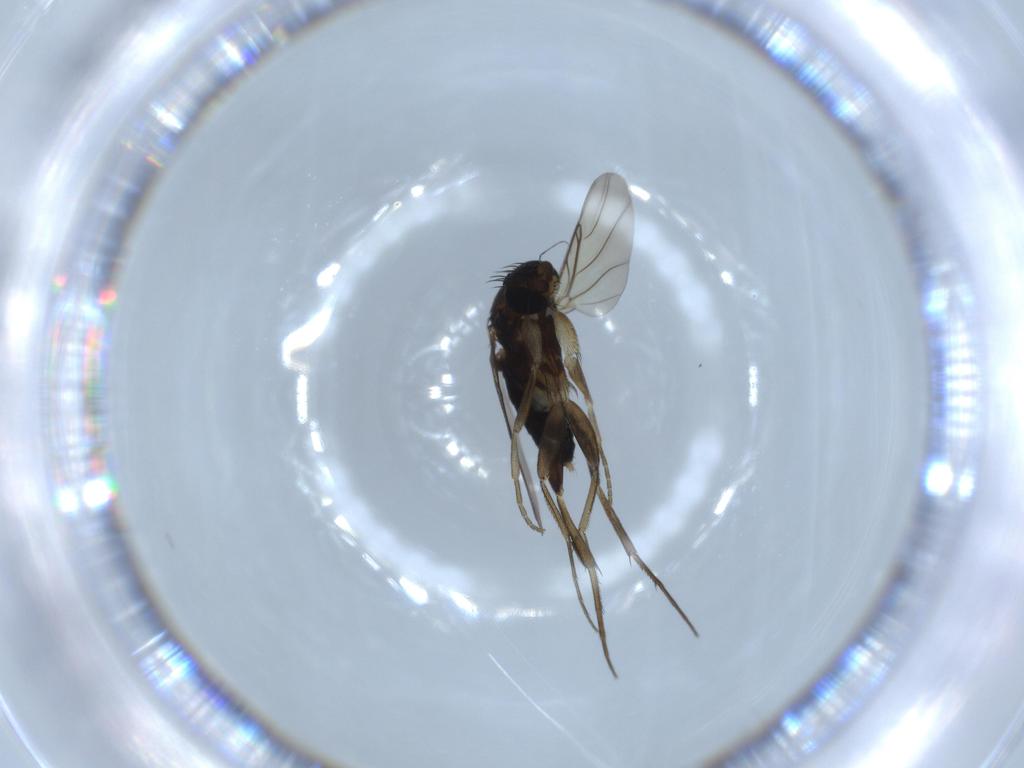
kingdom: Animalia
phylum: Arthropoda
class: Insecta
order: Diptera
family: Phoridae
